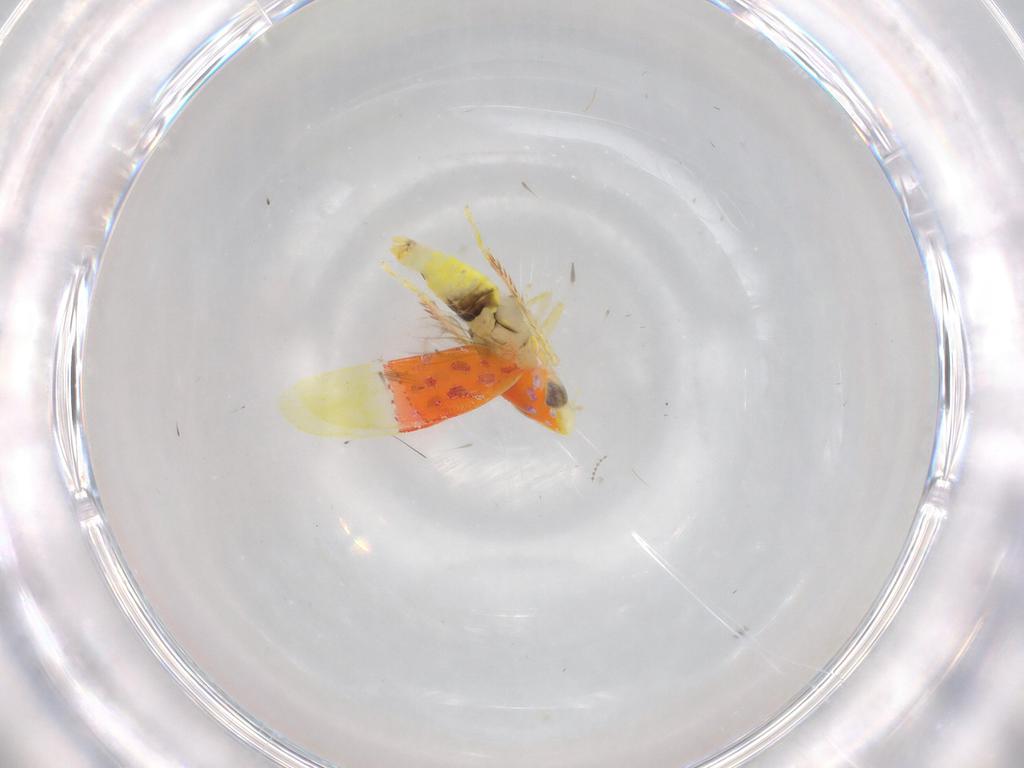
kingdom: Animalia
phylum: Arthropoda
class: Insecta
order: Hemiptera
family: Cicadellidae
